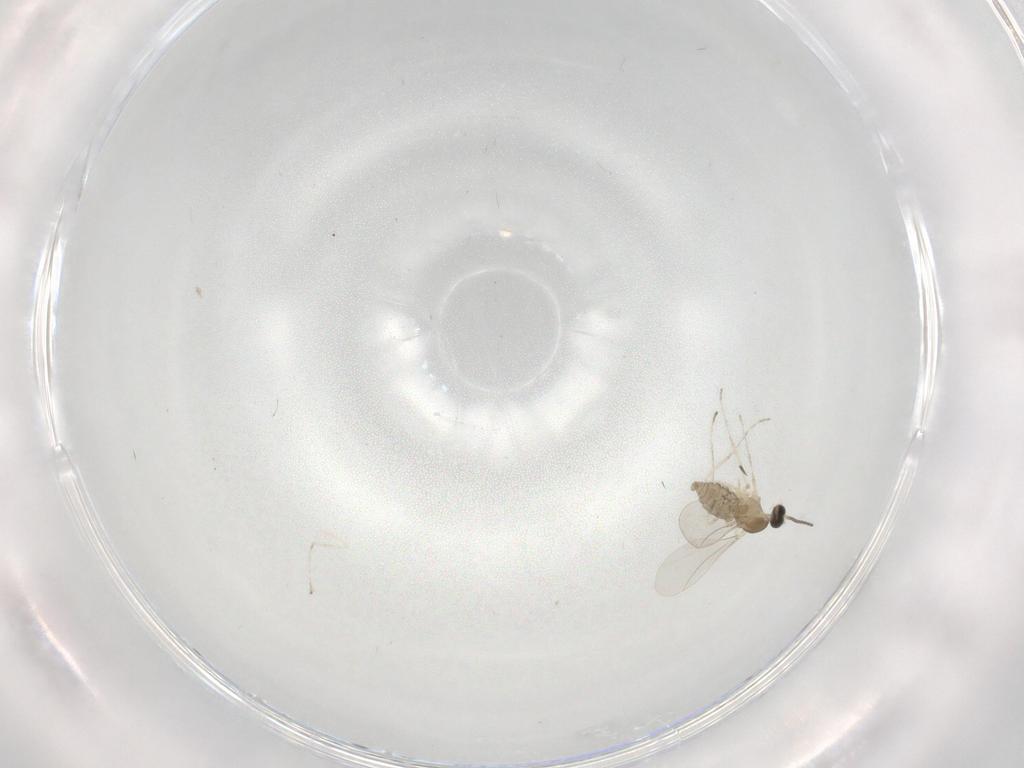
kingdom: Animalia
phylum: Arthropoda
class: Insecta
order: Diptera
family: Cecidomyiidae
